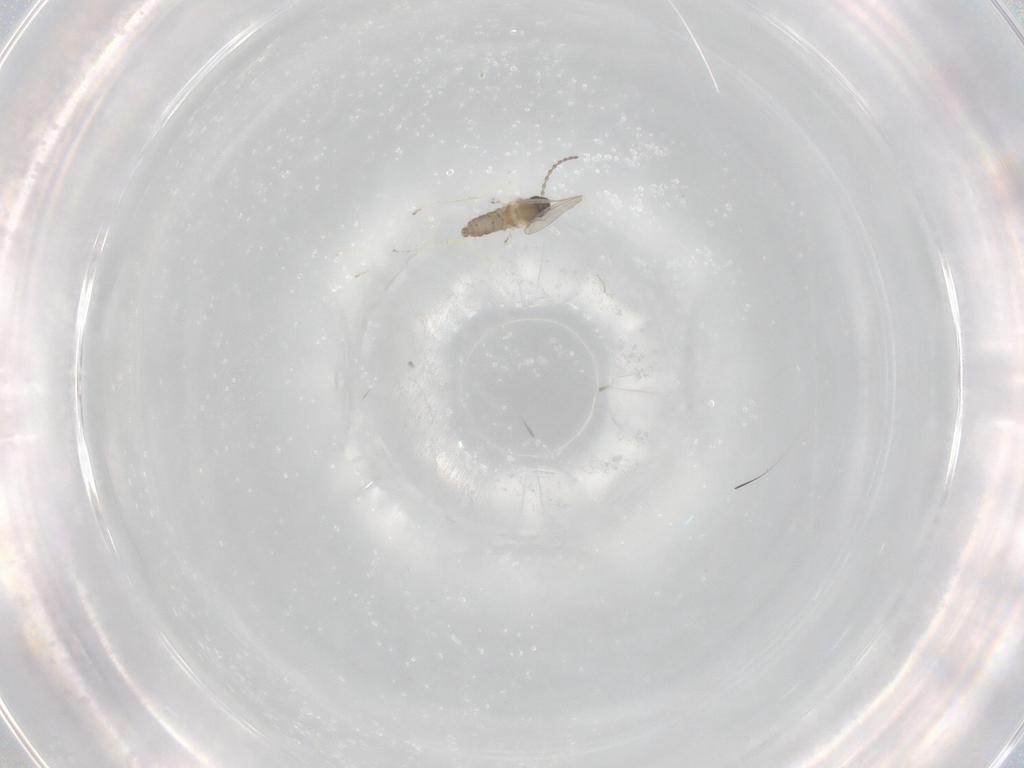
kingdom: Animalia
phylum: Arthropoda
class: Insecta
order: Diptera
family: Cecidomyiidae
